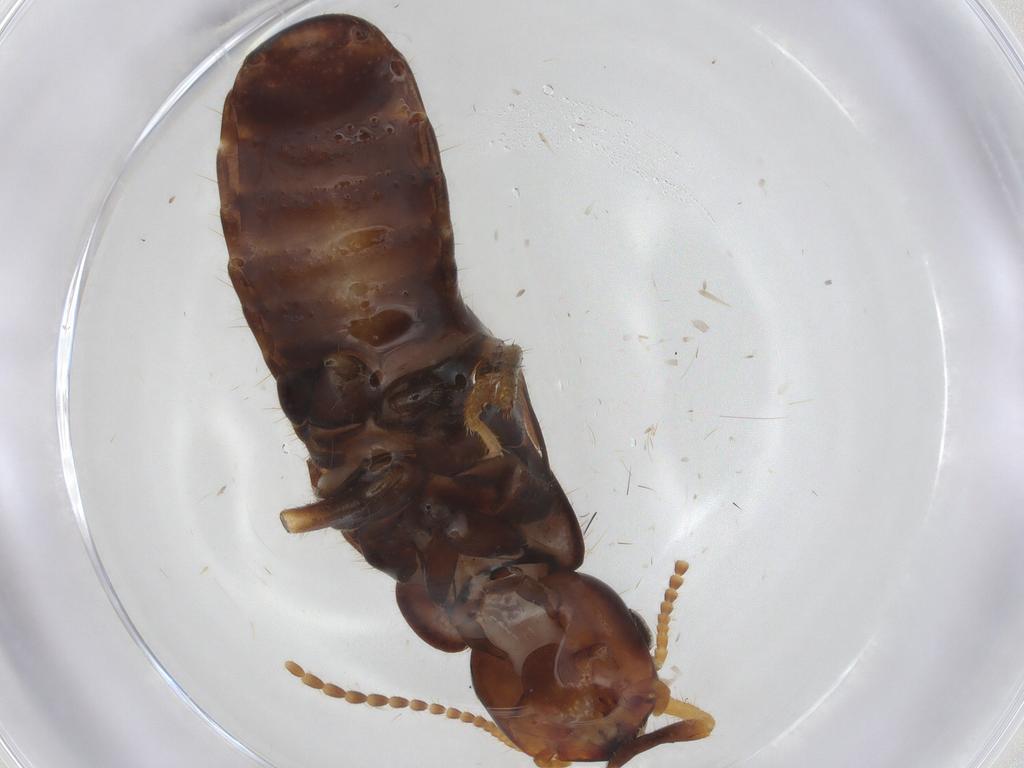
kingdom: Animalia
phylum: Arthropoda
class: Insecta
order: Blattodea
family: Kalotermitidae
